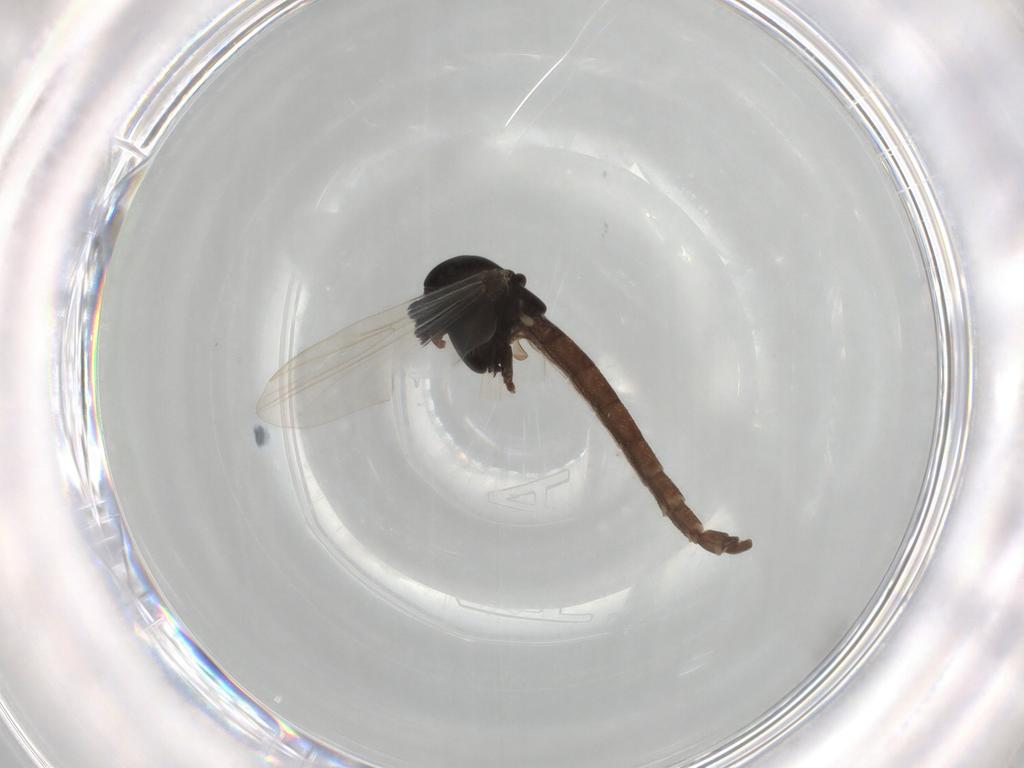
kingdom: Animalia
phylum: Arthropoda
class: Insecta
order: Diptera
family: Chironomidae
